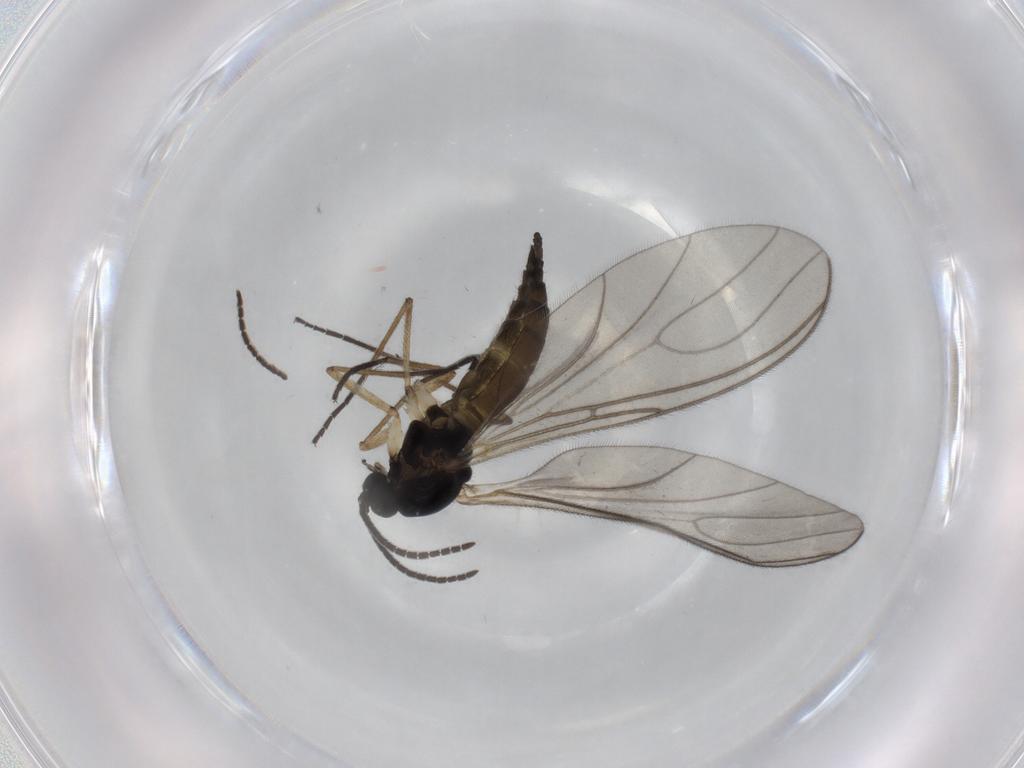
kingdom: Animalia
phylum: Arthropoda
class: Insecta
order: Diptera
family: Sciaridae
